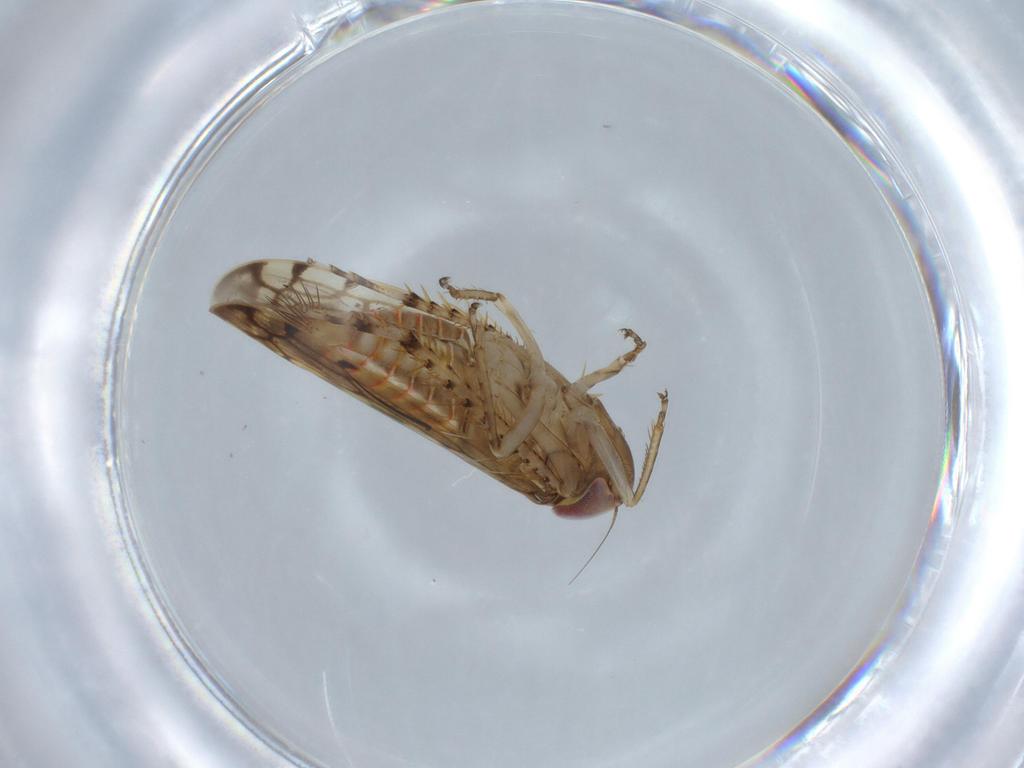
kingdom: Animalia
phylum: Arthropoda
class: Insecta
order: Hemiptera
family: Cicadellidae
